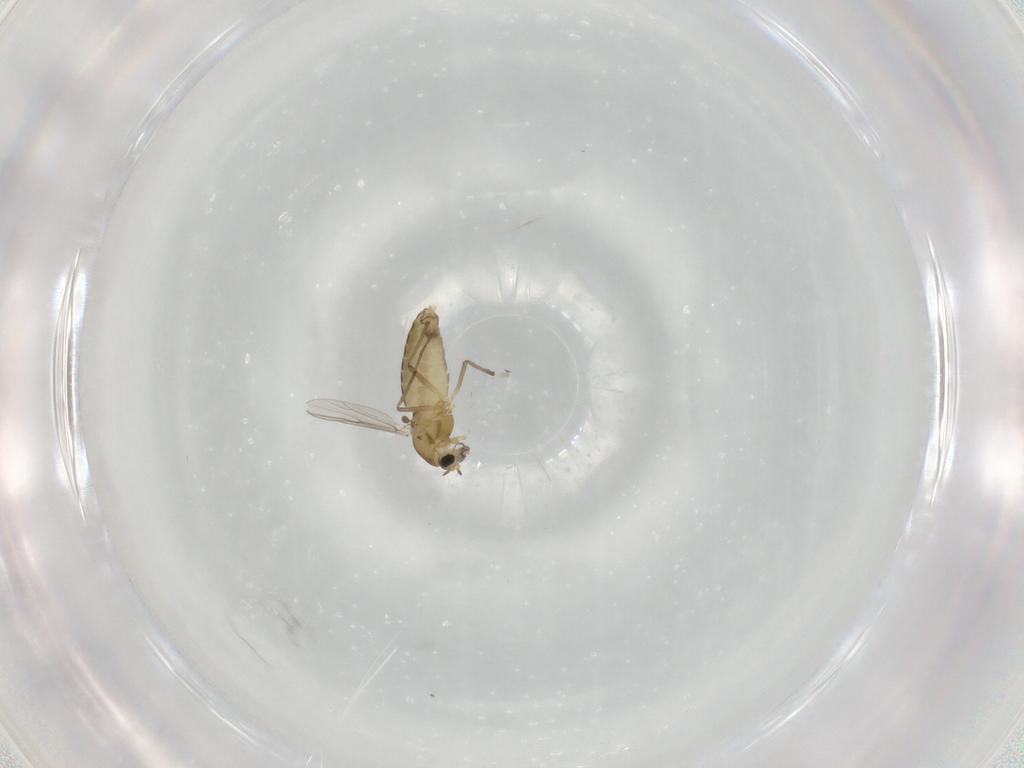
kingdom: Animalia
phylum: Arthropoda
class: Insecta
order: Diptera
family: Chironomidae
